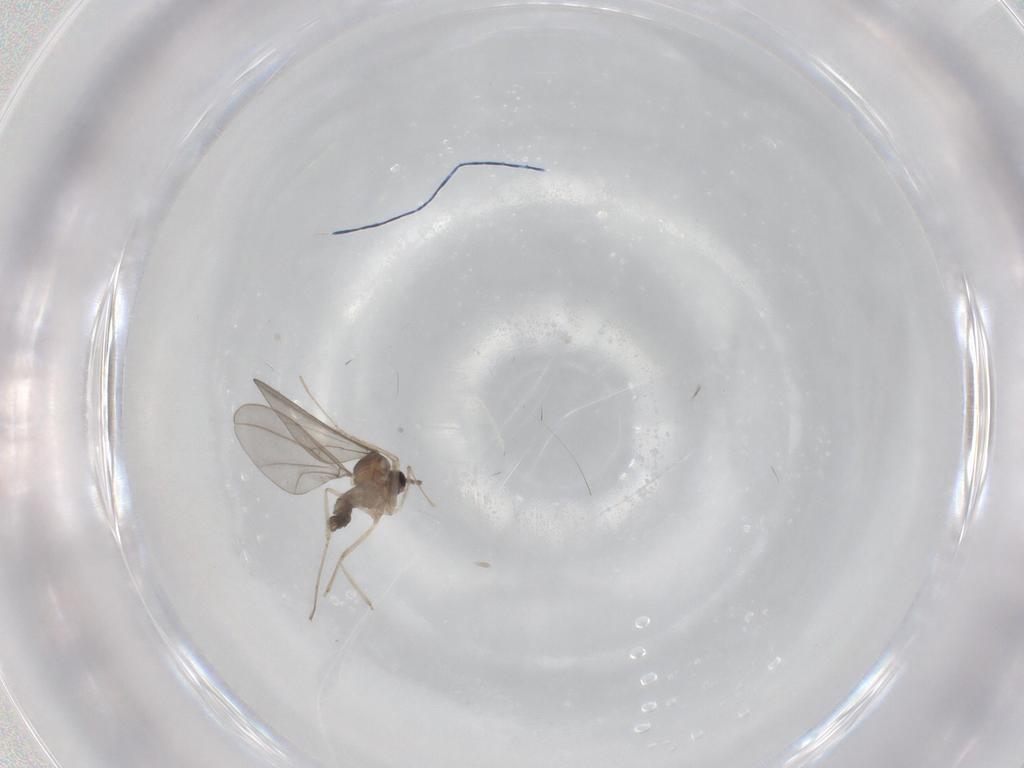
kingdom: Animalia
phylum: Arthropoda
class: Insecta
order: Diptera
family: Cecidomyiidae
